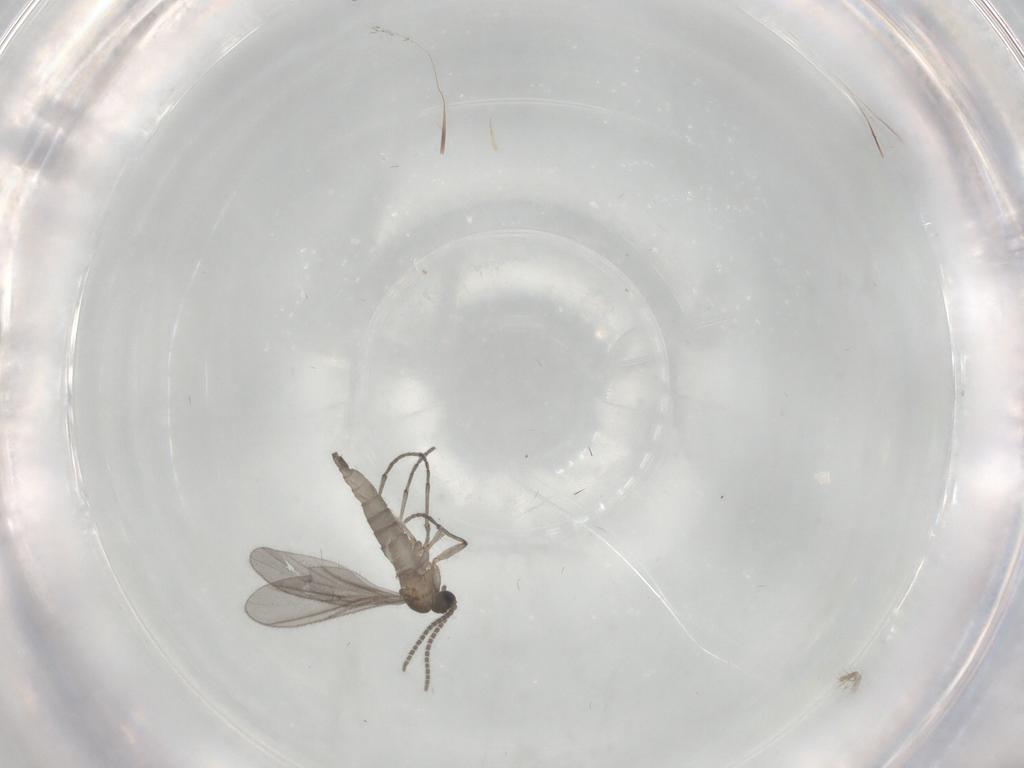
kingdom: Animalia
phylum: Arthropoda
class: Insecta
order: Diptera
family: Sciaridae
